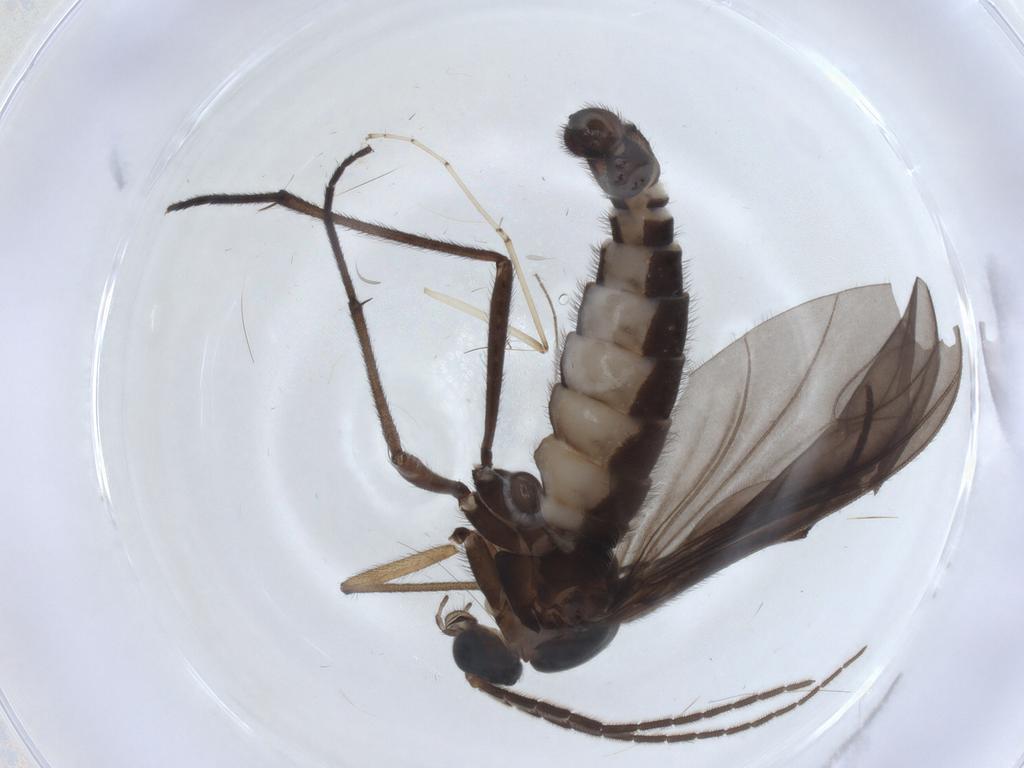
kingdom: Animalia
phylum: Arthropoda
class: Insecta
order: Diptera
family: Sciaridae
